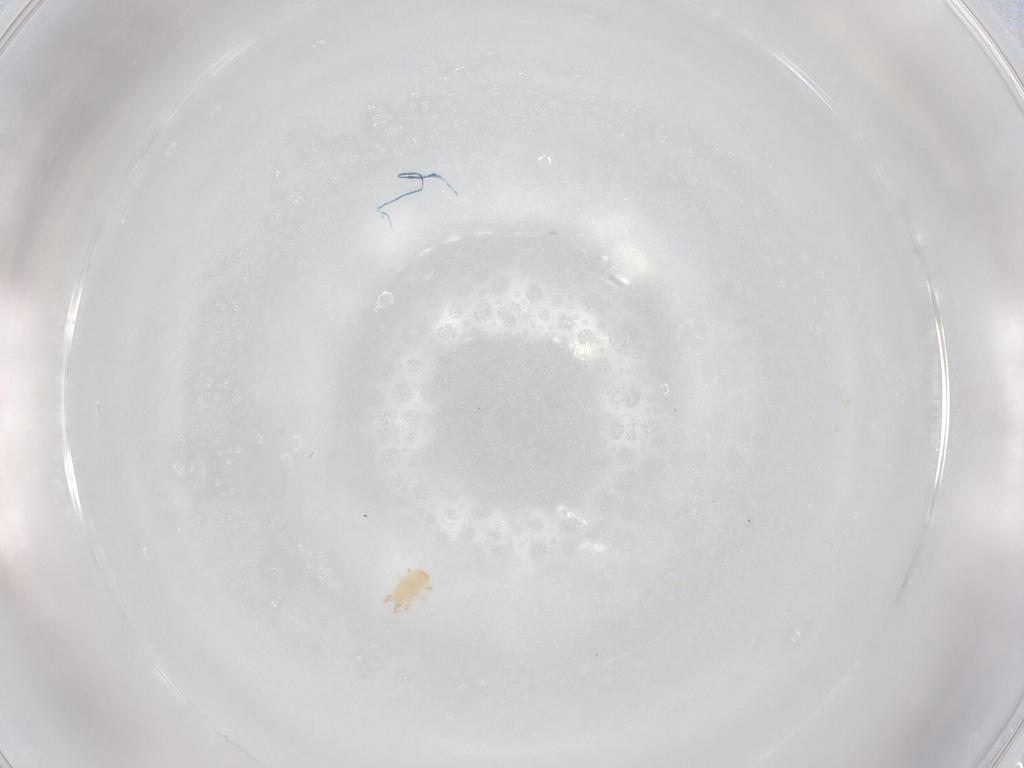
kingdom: Animalia
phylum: Arthropoda
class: Arachnida
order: Mesostigmata
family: Ascidae
